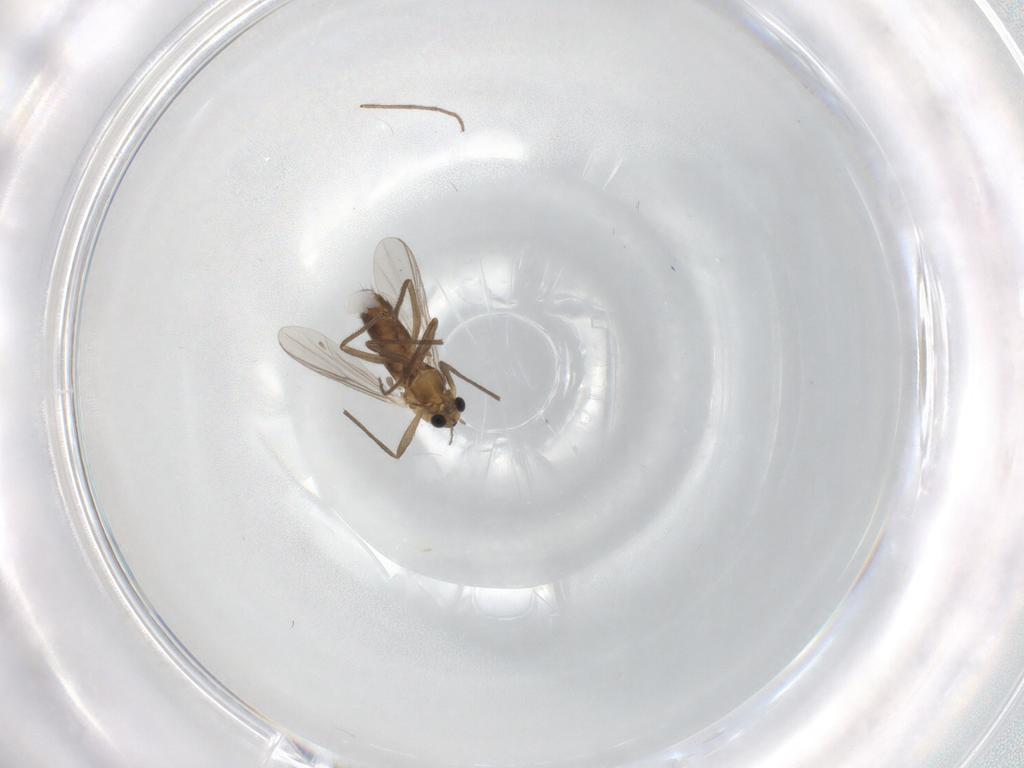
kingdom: Animalia
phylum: Arthropoda
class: Insecta
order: Diptera
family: Chironomidae
